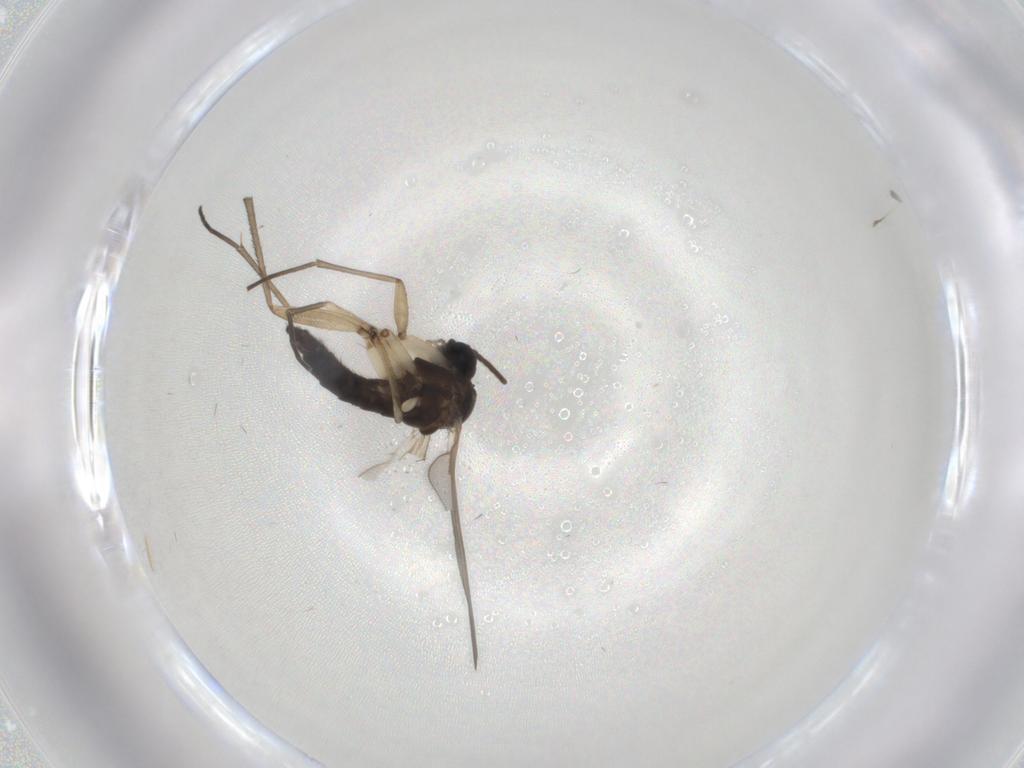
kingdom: Animalia
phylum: Arthropoda
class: Insecta
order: Diptera
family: Sciaridae
